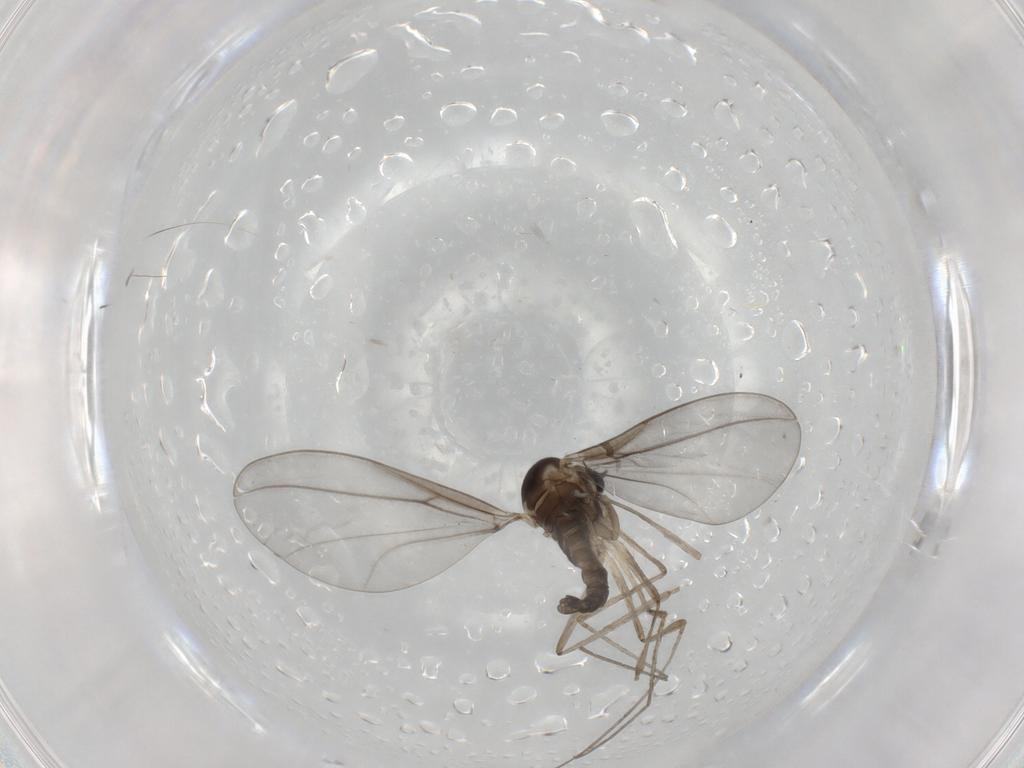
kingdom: Animalia
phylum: Arthropoda
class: Insecta
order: Diptera
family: Cecidomyiidae
